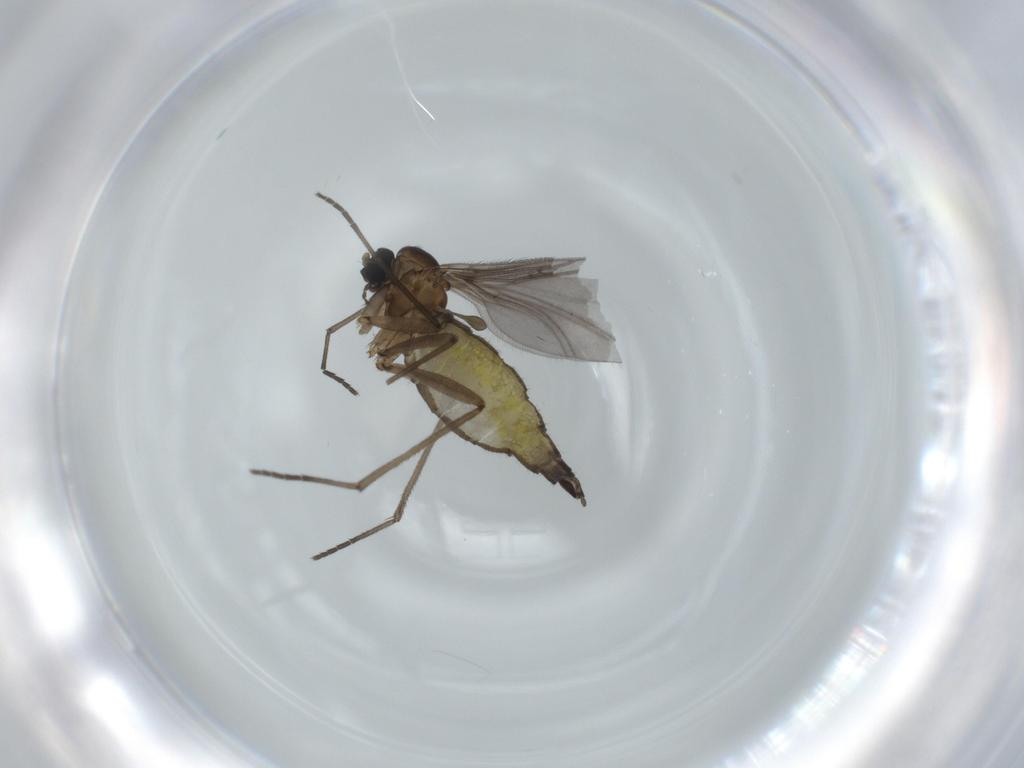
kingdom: Animalia
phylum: Arthropoda
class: Insecta
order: Diptera
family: Sciaridae
